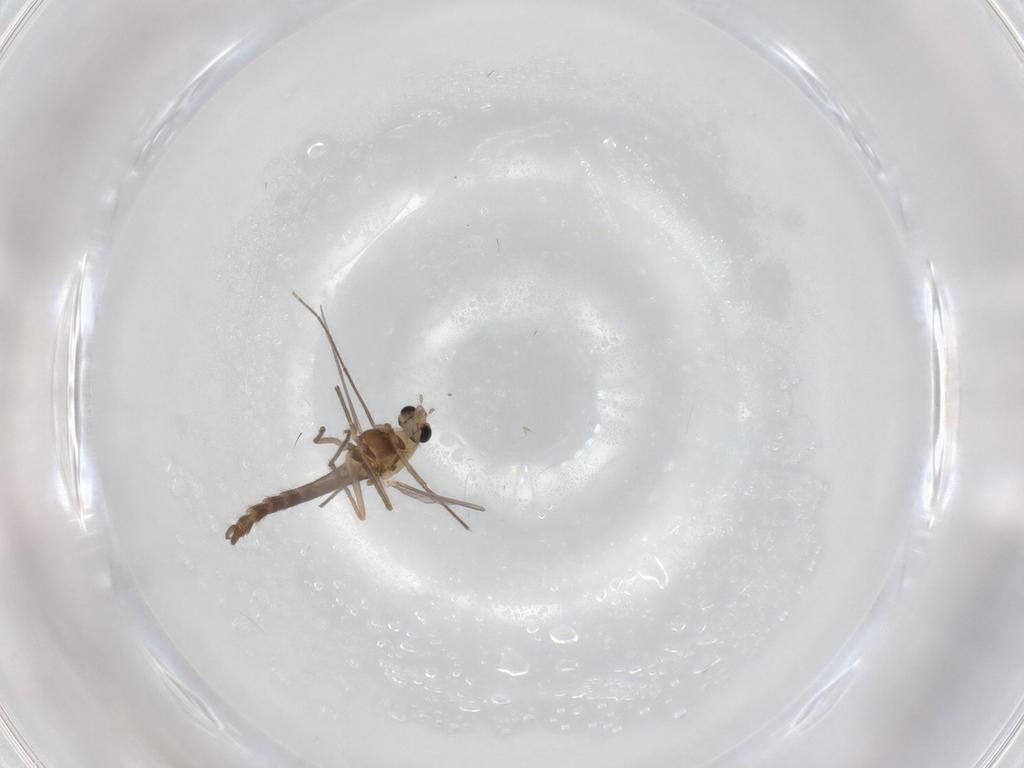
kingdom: Animalia
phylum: Arthropoda
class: Insecta
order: Diptera
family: Chironomidae
